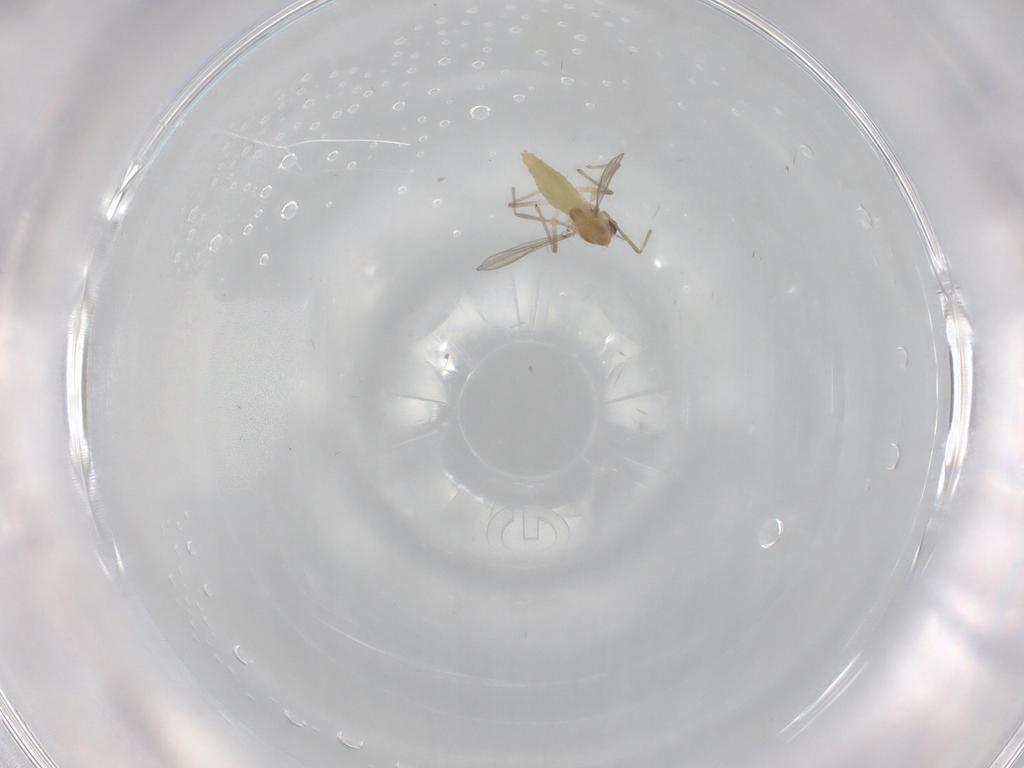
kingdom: Animalia
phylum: Arthropoda
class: Insecta
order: Diptera
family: Chironomidae
